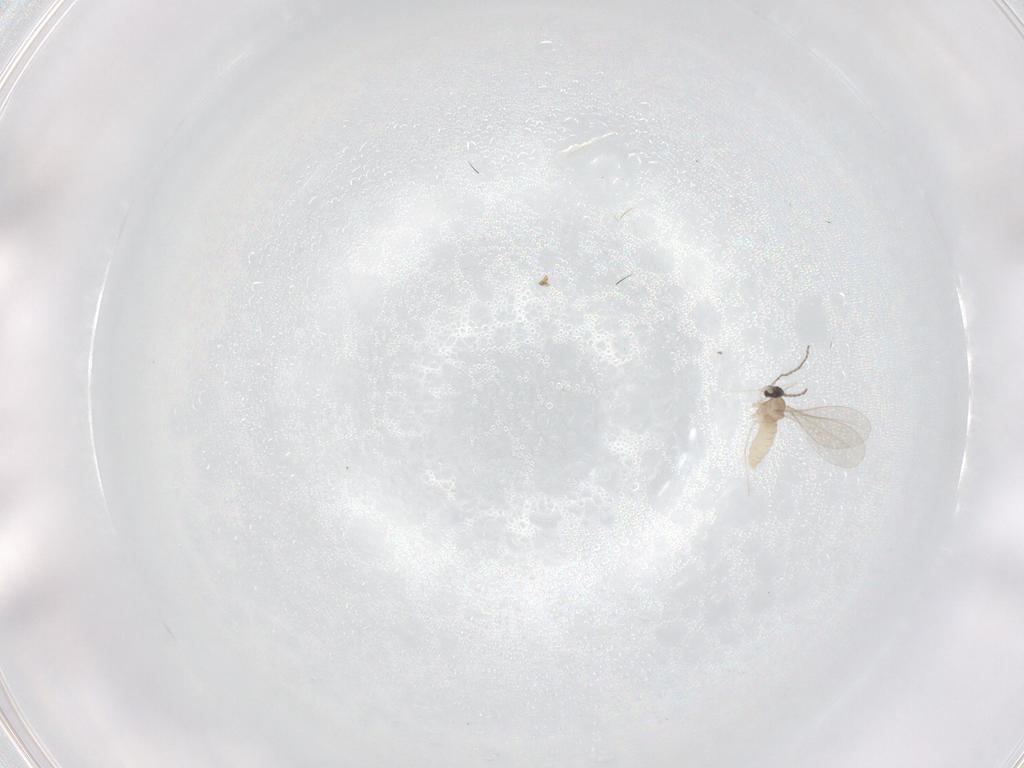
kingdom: Animalia
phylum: Arthropoda
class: Insecta
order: Diptera
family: Cecidomyiidae
